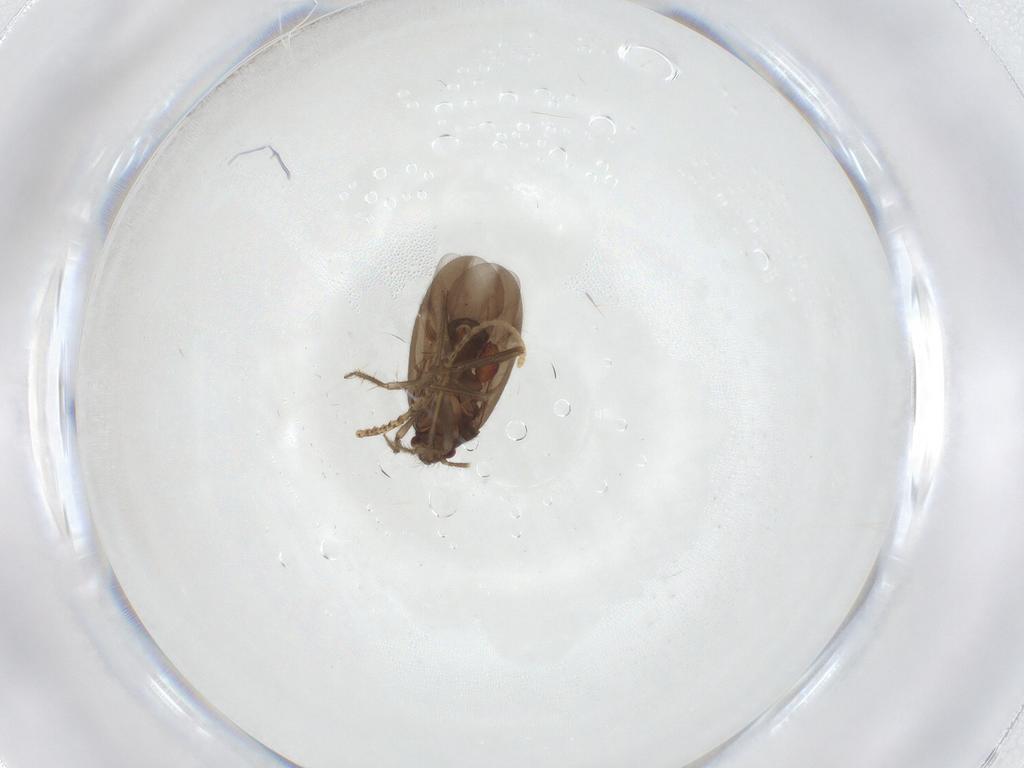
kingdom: Animalia
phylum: Arthropoda
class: Insecta
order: Hemiptera
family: Ceratocombidae
